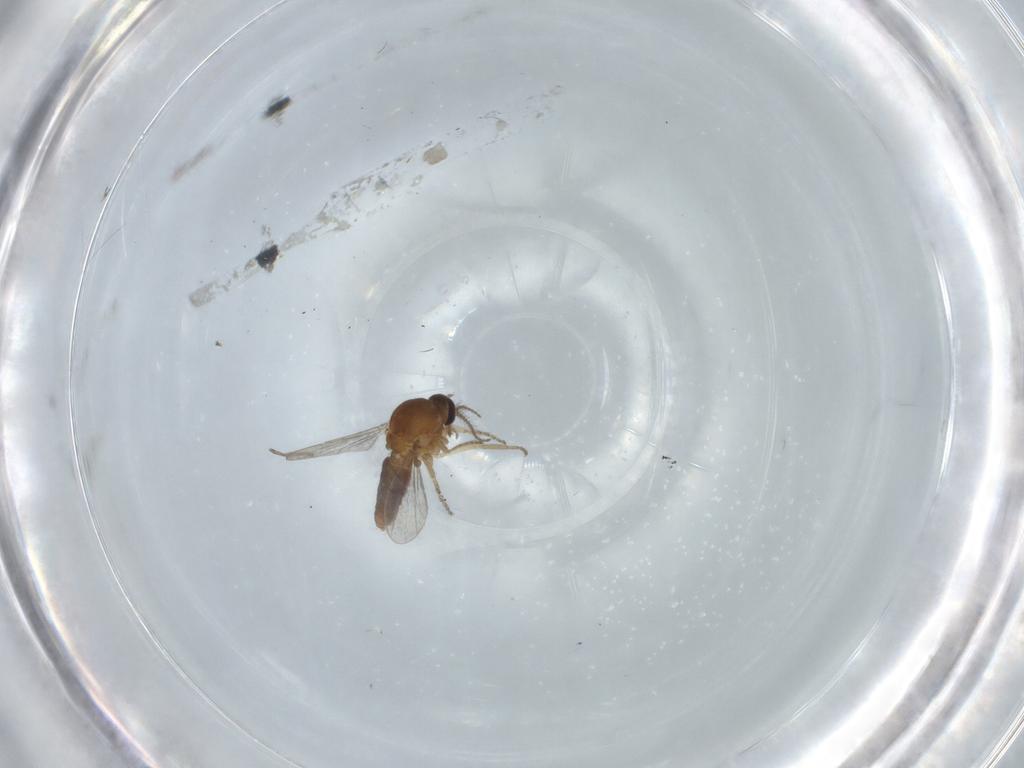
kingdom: Animalia
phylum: Arthropoda
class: Insecta
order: Diptera
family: Ceratopogonidae
